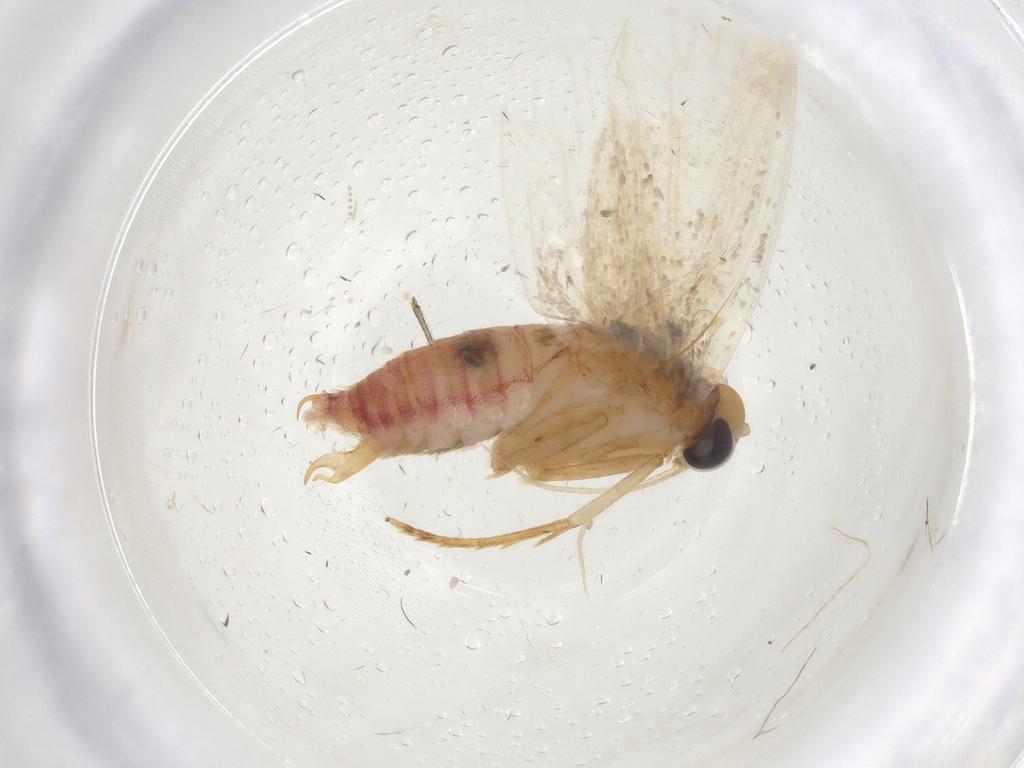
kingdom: Animalia
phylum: Arthropoda
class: Insecta
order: Lepidoptera
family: Oecophoridae
